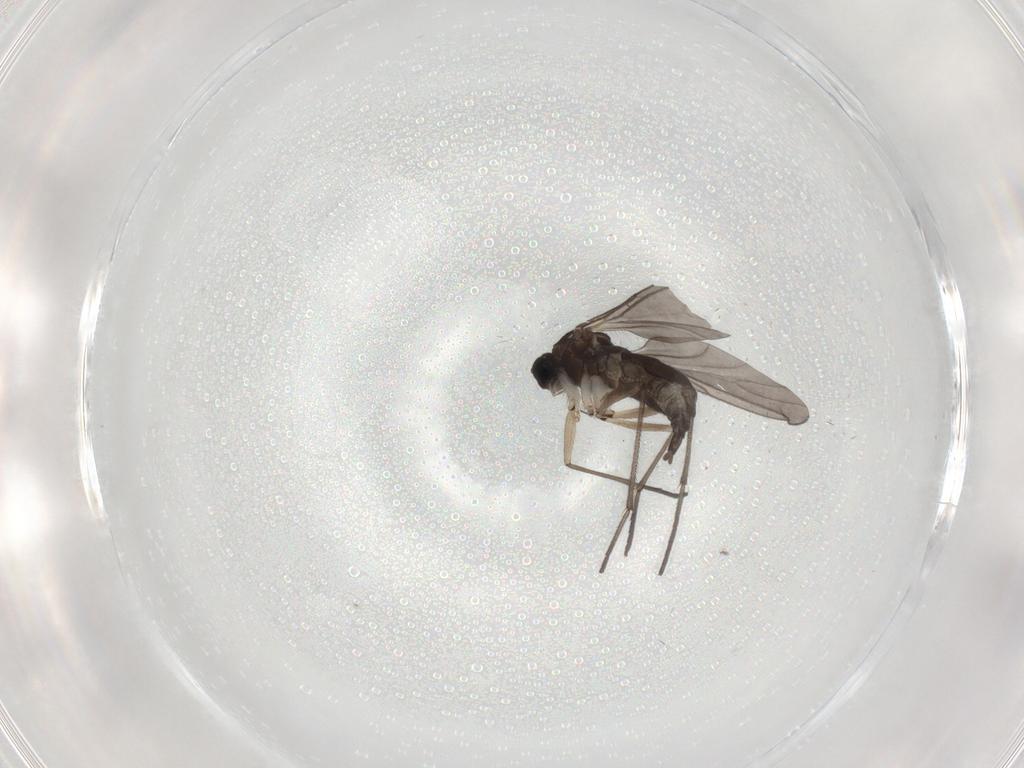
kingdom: Animalia
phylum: Arthropoda
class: Insecta
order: Diptera
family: Sciaridae
